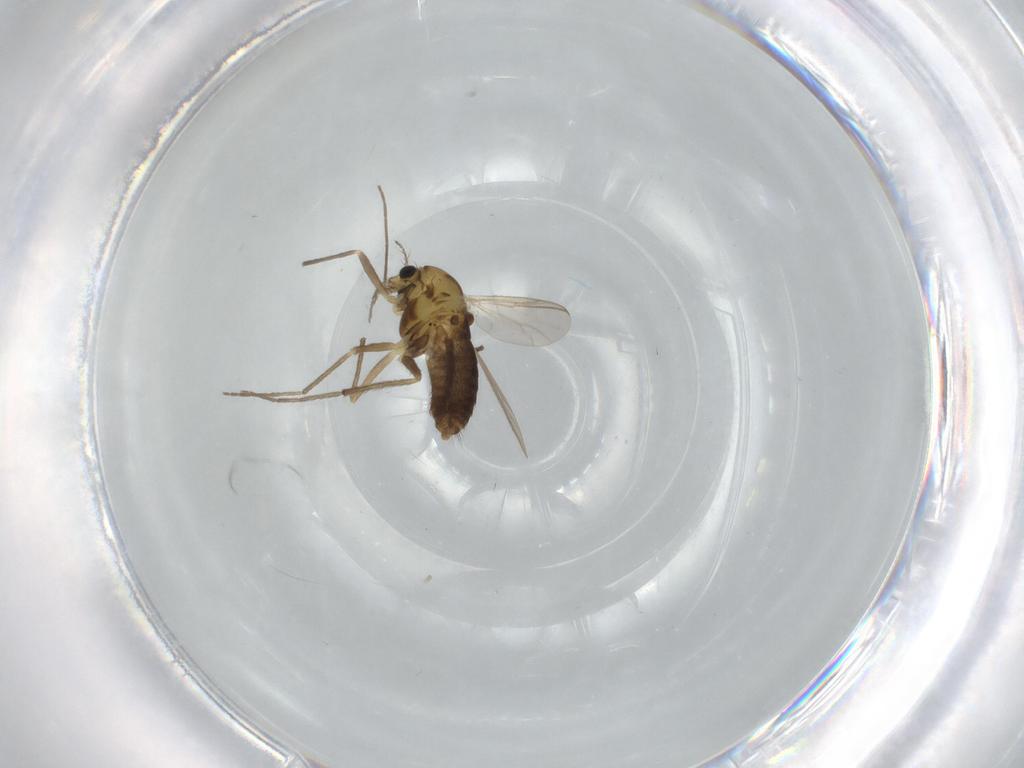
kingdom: Animalia
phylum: Arthropoda
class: Insecta
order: Diptera
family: Chironomidae
